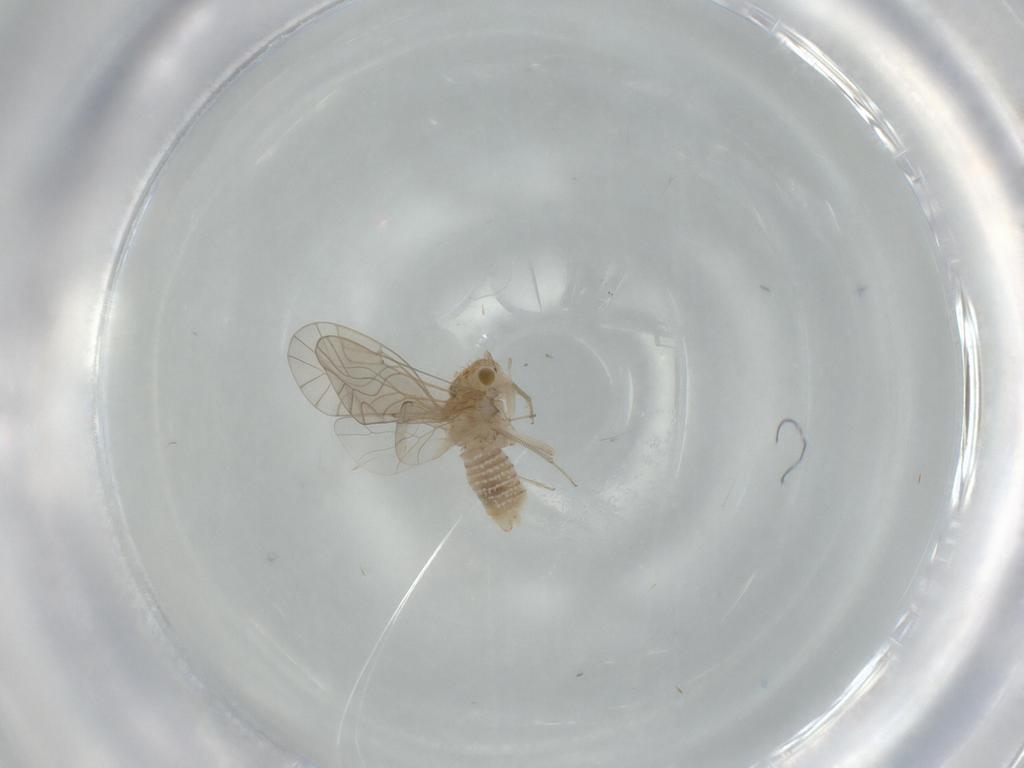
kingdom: Animalia
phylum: Arthropoda
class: Insecta
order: Psocodea
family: Lachesillidae
